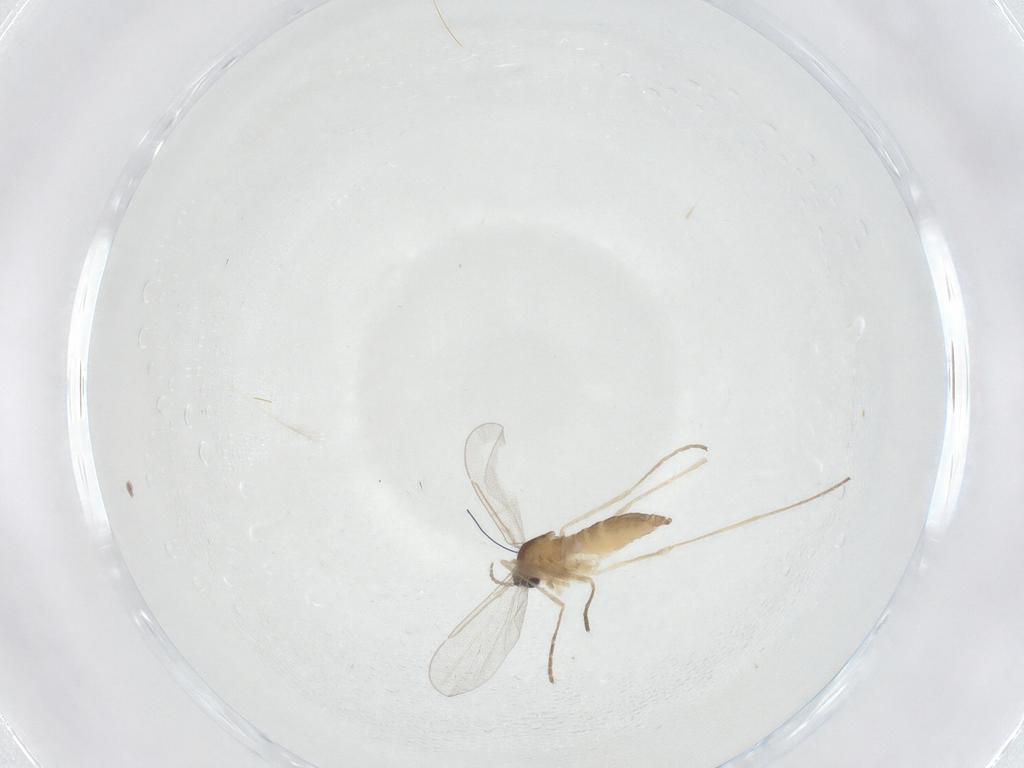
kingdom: Animalia
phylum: Arthropoda
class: Insecta
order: Diptera
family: Cecidomyiidae
